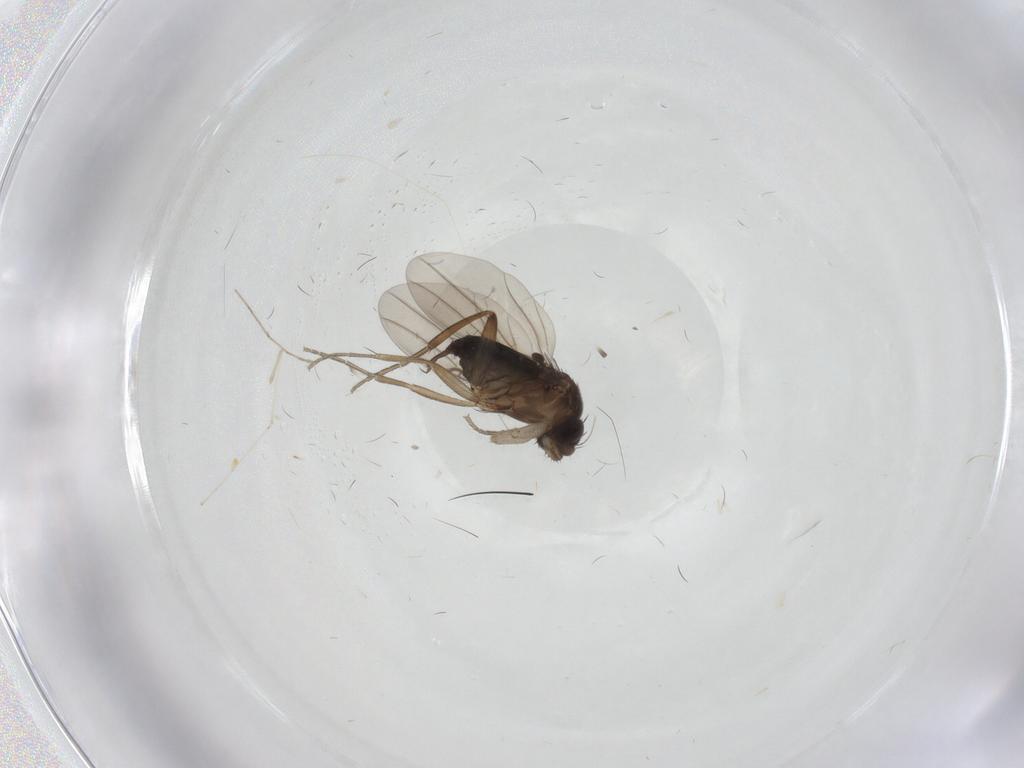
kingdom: Animalia
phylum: Arthropoda
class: Insecta
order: Diptera
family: Phoridae
